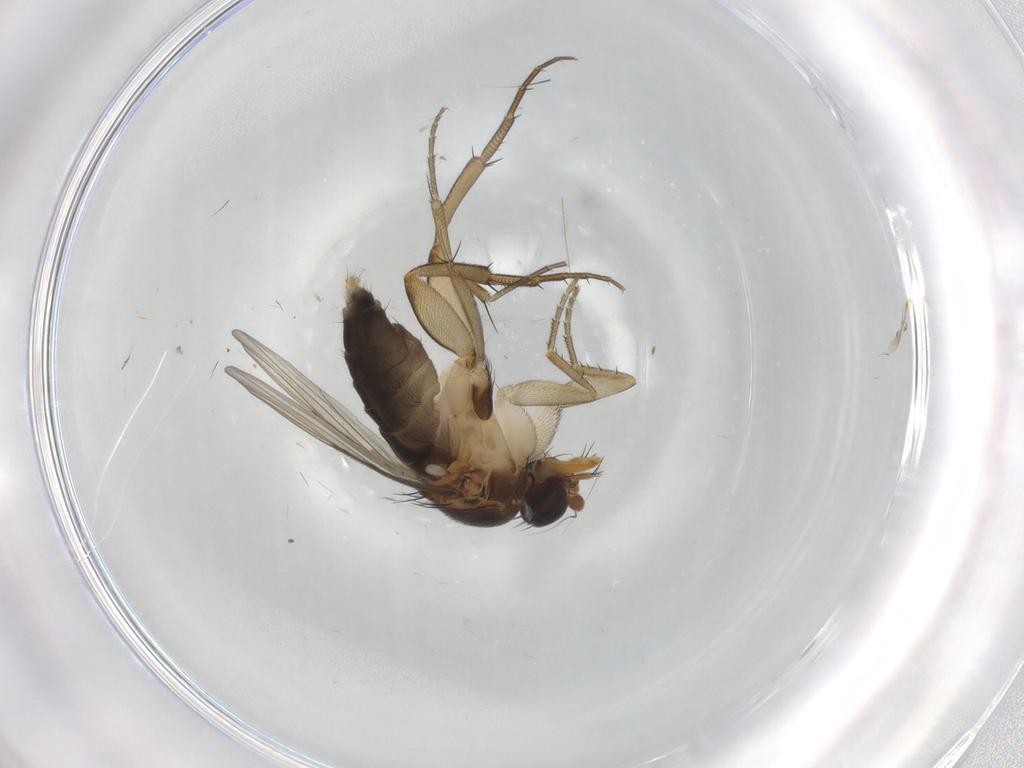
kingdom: Animalia
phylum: Arthropoda
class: Insecta
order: Diptera
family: Phoridae
